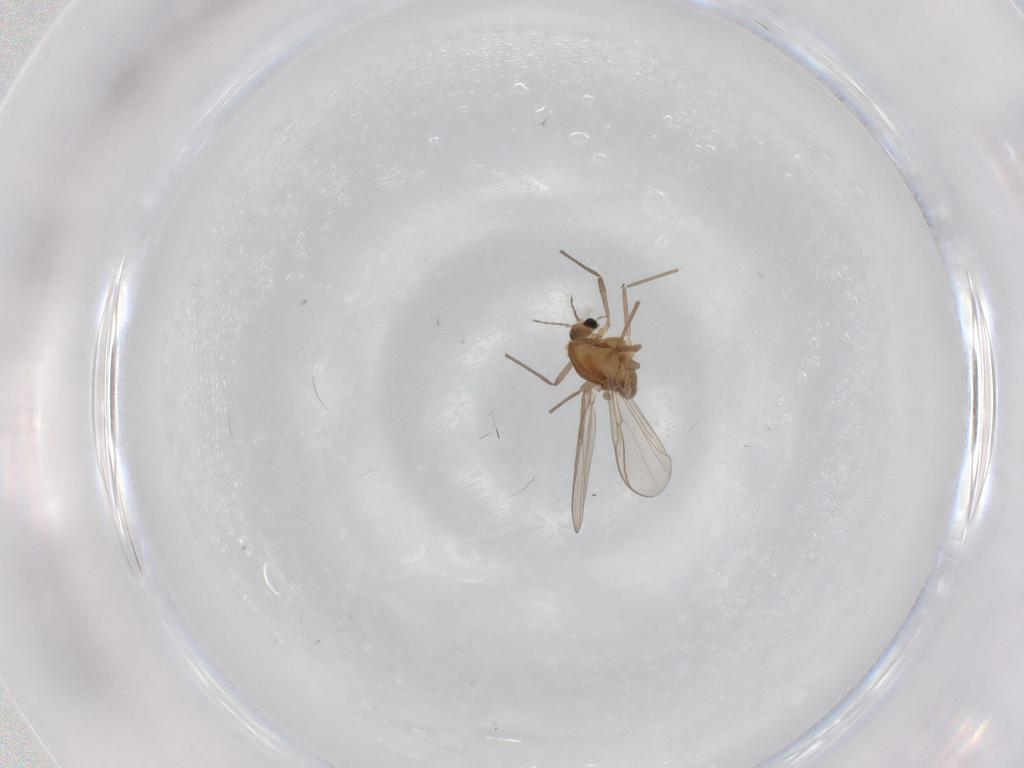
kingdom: Animalia
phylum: Arthropoda
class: Insecta
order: Diptera
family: Chironomidae
